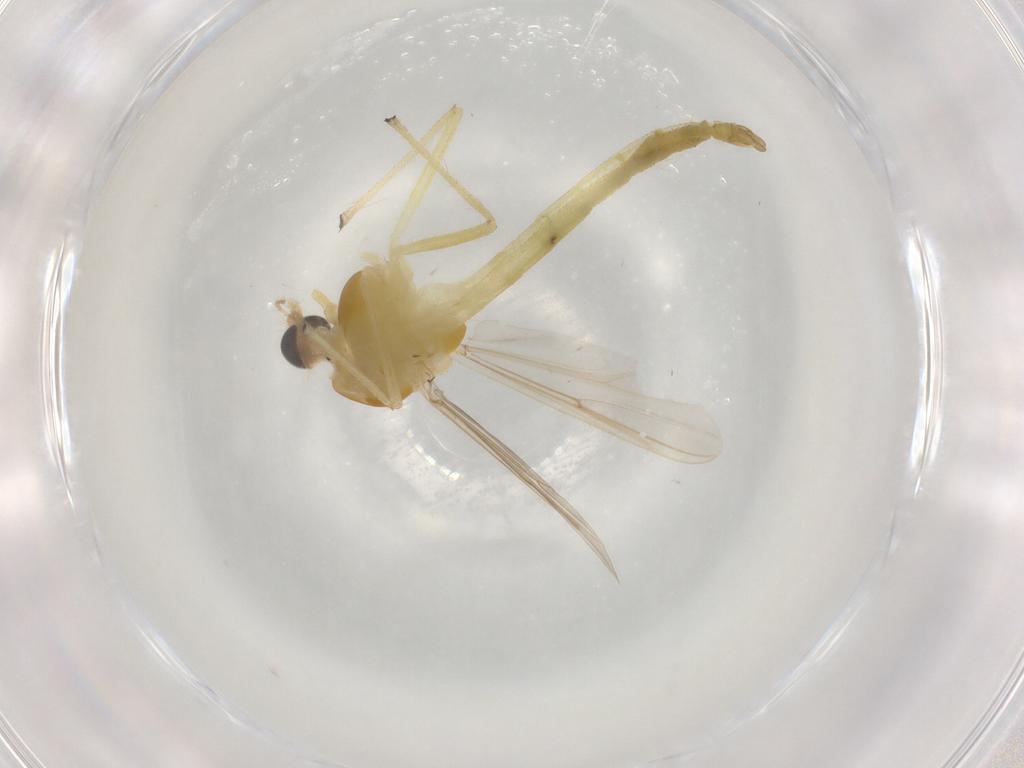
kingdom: Animalia
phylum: Arthropoda
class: Insecta
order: Diptera
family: Chironomidae
